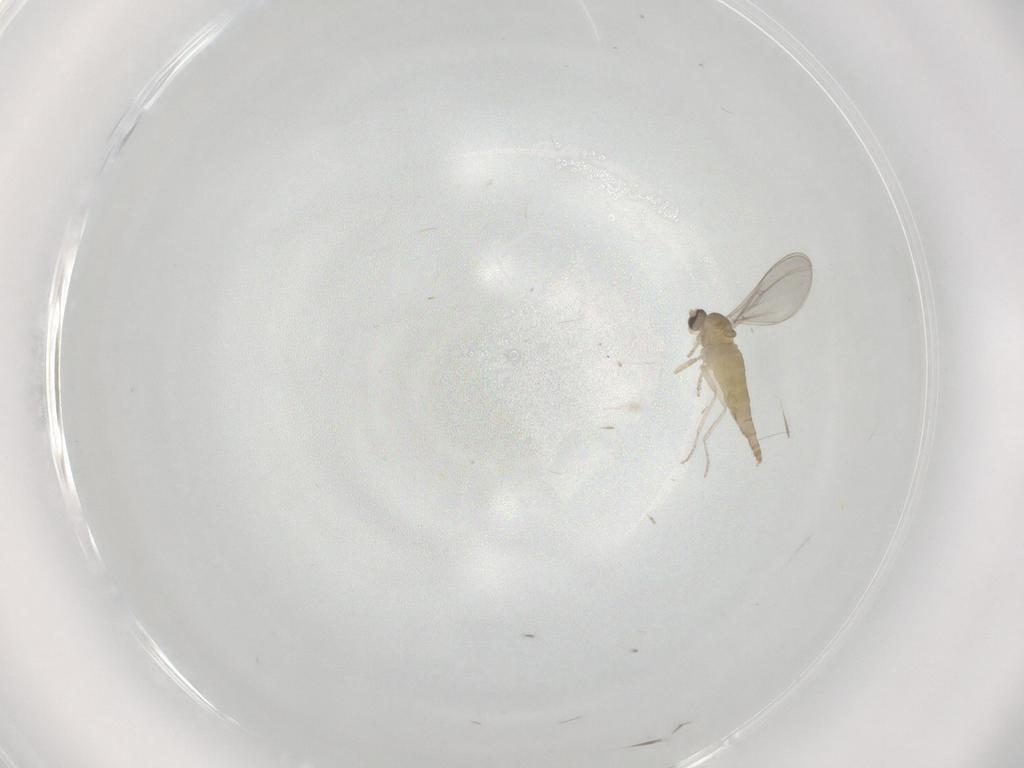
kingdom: Animalia
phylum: Arthropoda
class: Insecta
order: Diptera
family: Cecidomyiidae
